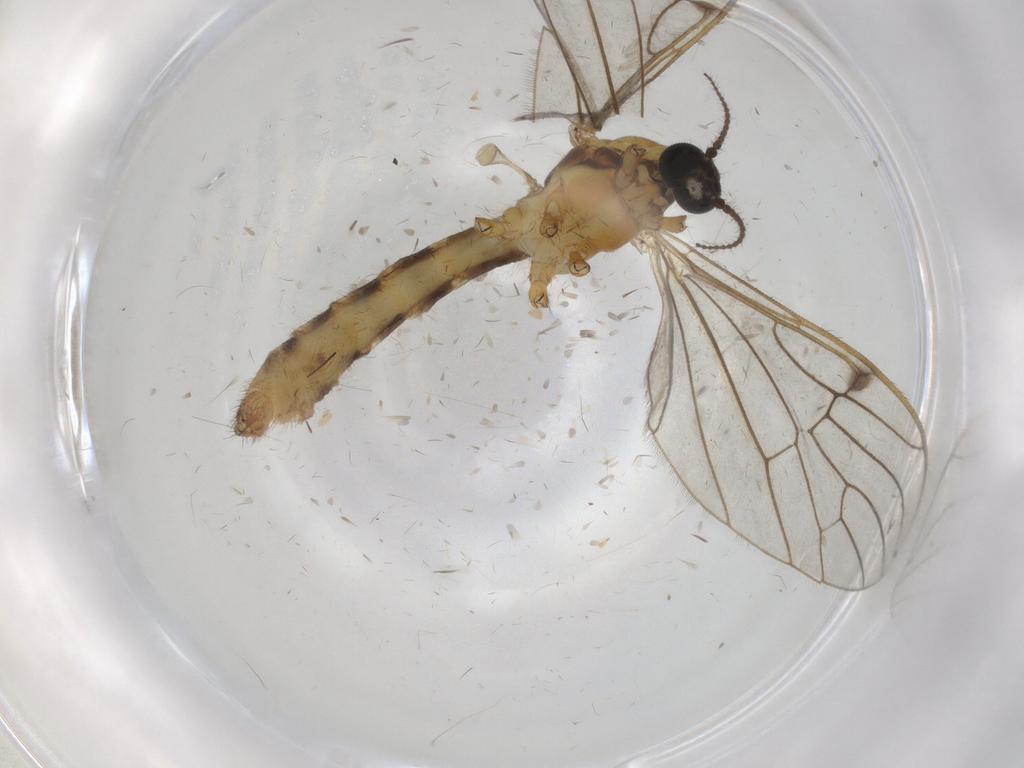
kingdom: Animalia
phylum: Arthropoda
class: Insecta
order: Diptera
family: Limoniidae
